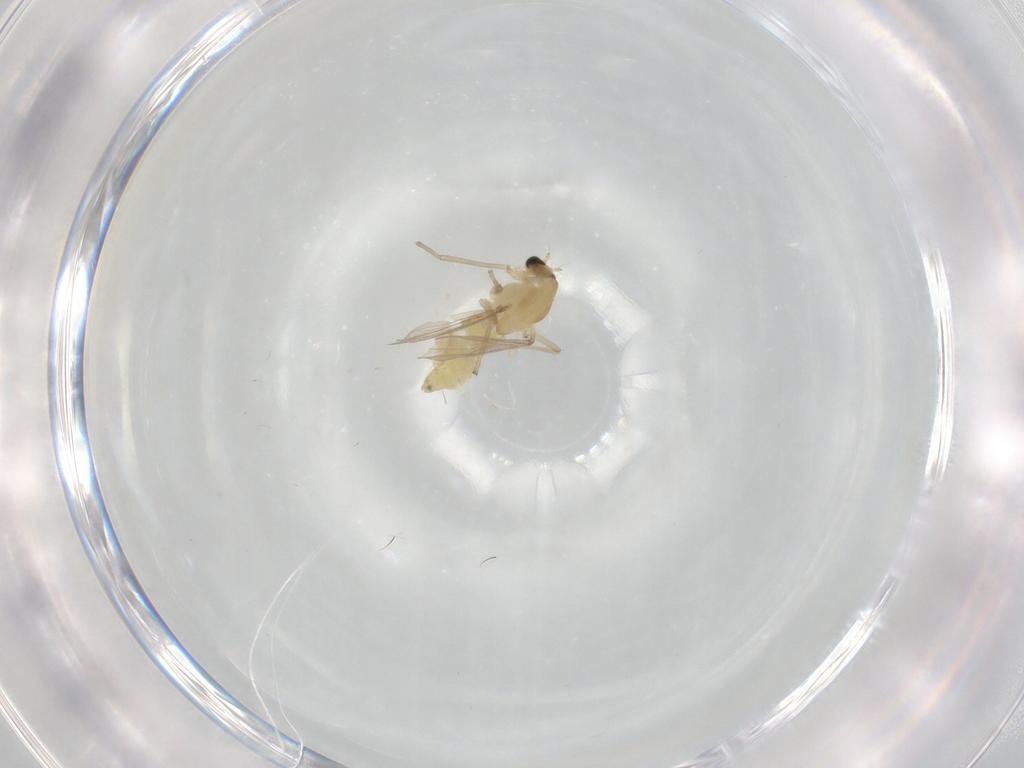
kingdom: Animalia
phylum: Arthropoda
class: Insecta
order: Diptera
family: Chironomidae
